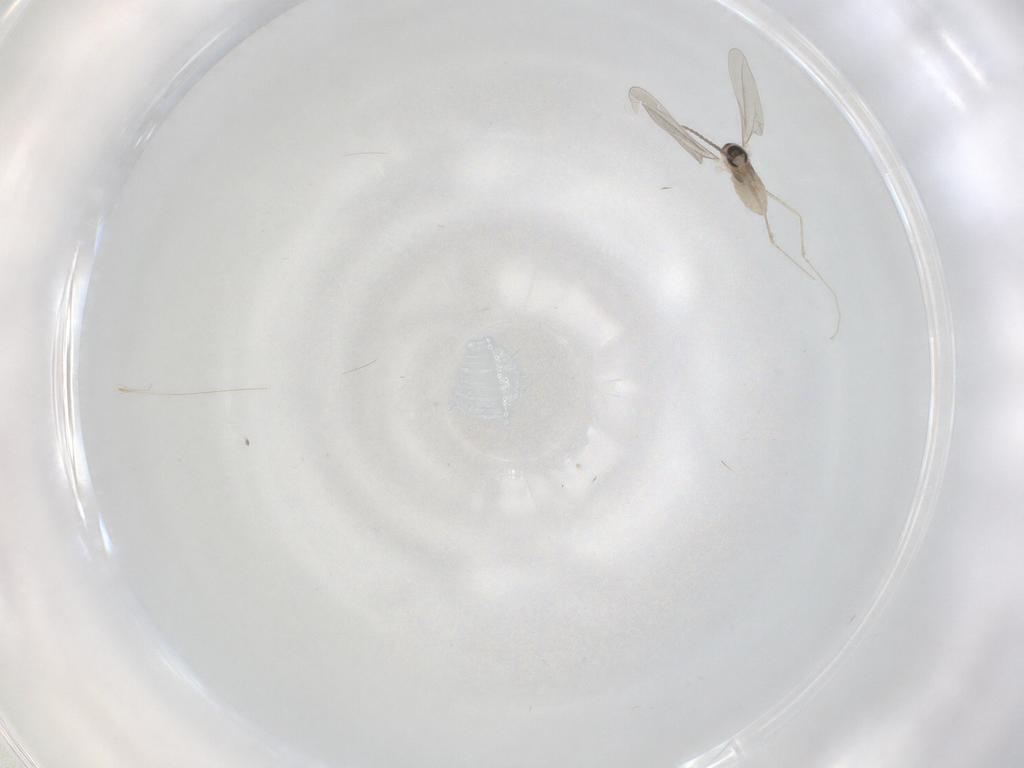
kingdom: Animalia
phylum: Arthropoda
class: Insecta
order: Diptera
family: Cecidomyiidae
